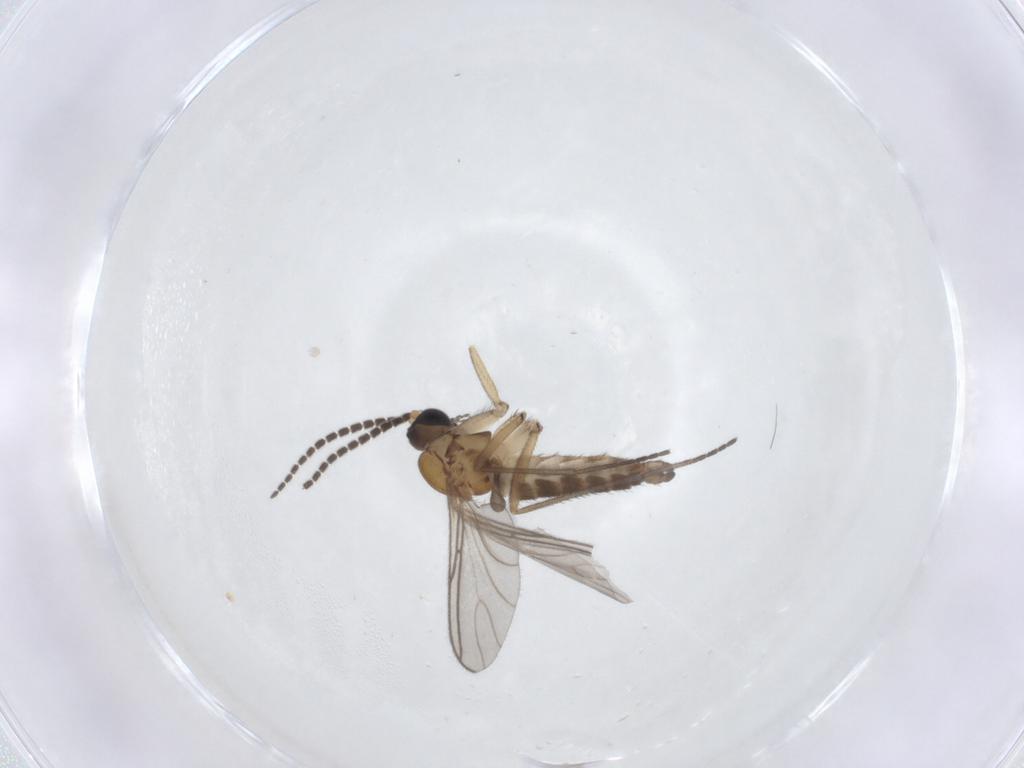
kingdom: Animalia
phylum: Arthropoda
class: Insecta
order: Diptera
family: Sciaridae
